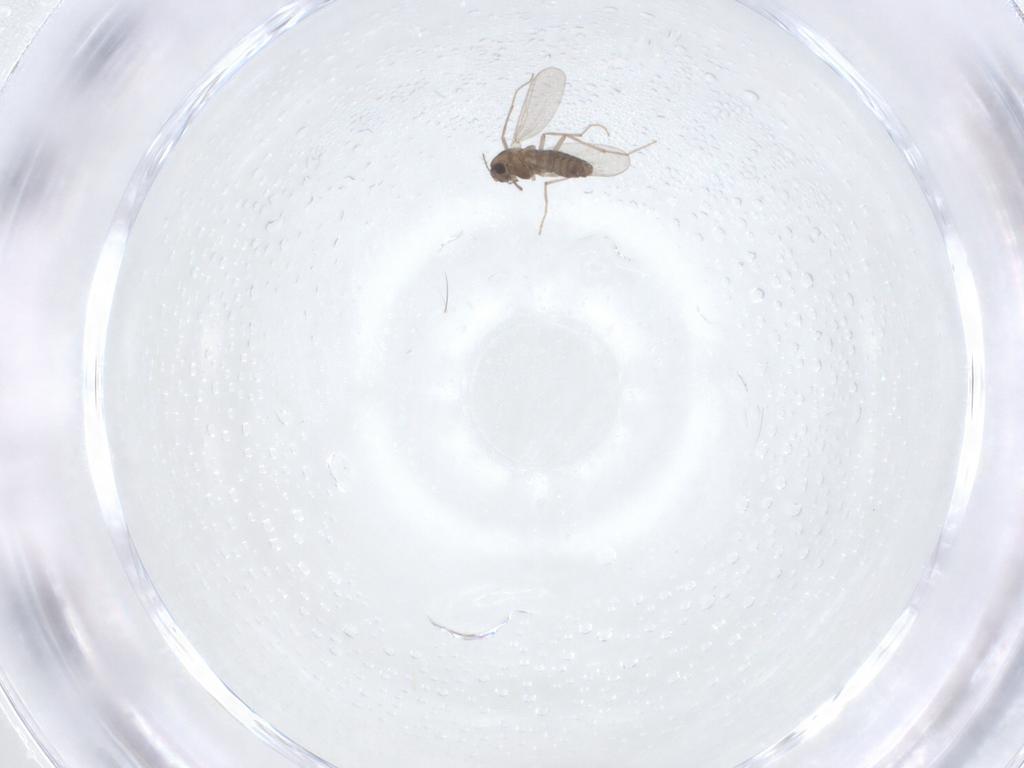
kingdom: Animalia
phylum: Arthropoda
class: Insecta
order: Diptera
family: Chironomidae
